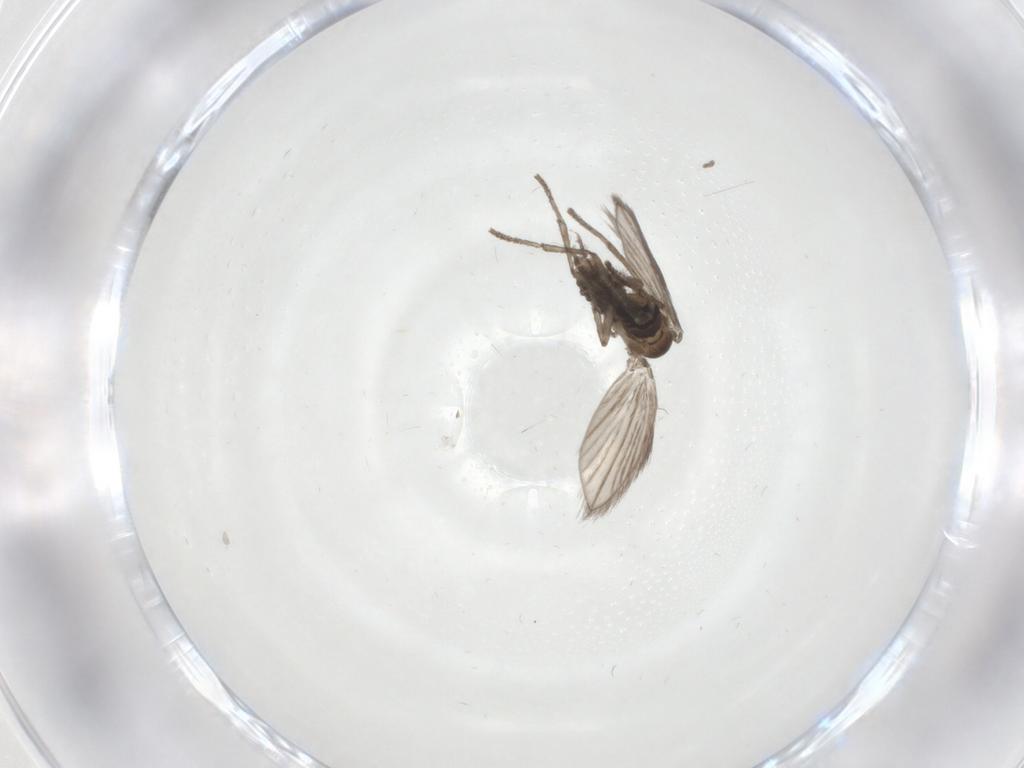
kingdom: Animalia
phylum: Arthropoda
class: Insecta
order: Diptera
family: Psychodidae
